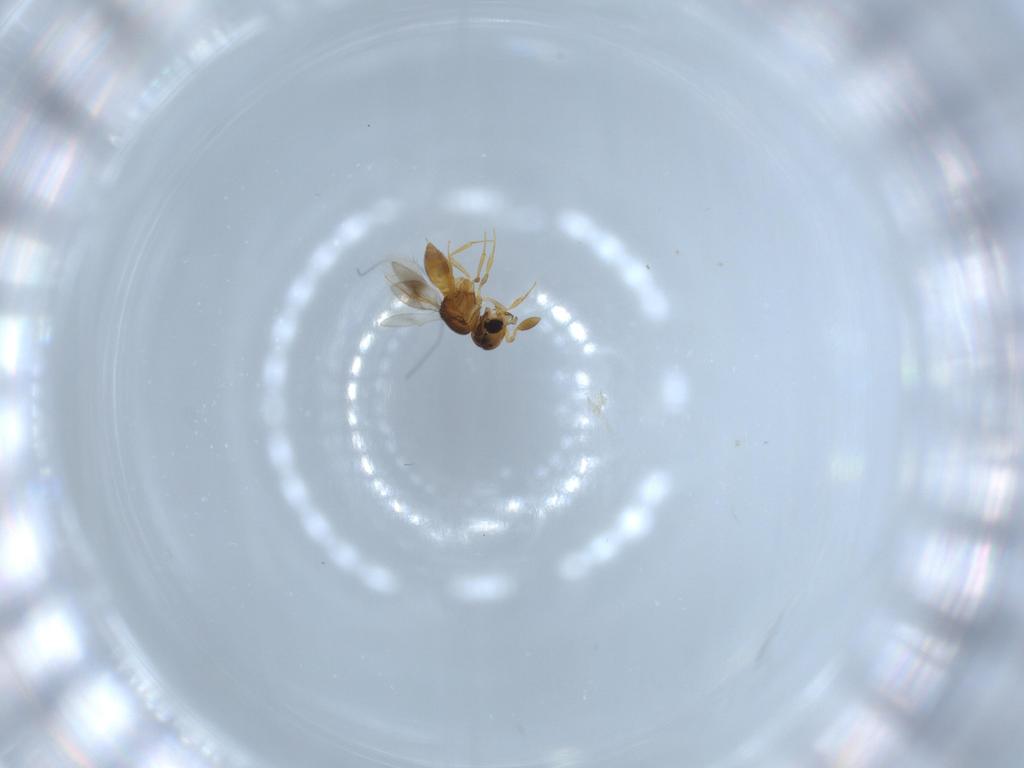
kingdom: Animalia
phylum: Arthropoda
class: Insecta
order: Hymenoptera
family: Scelionidae
